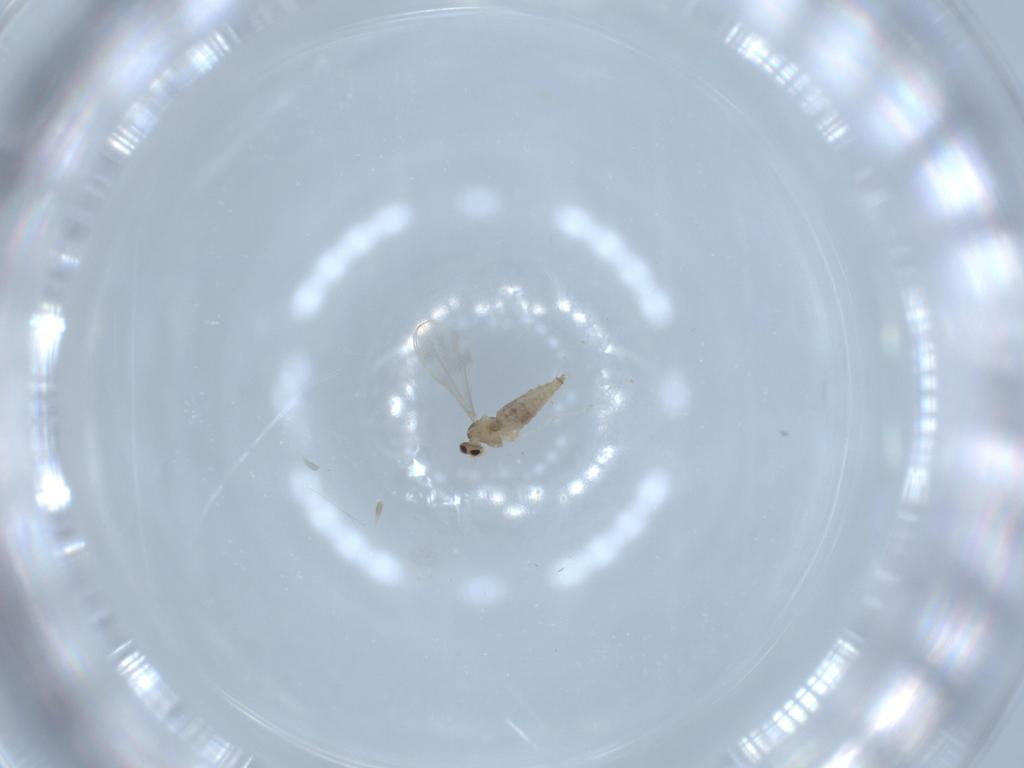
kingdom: Animalia
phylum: Arthropoda
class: Insecta
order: Diptera
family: Cecidomyiidae
